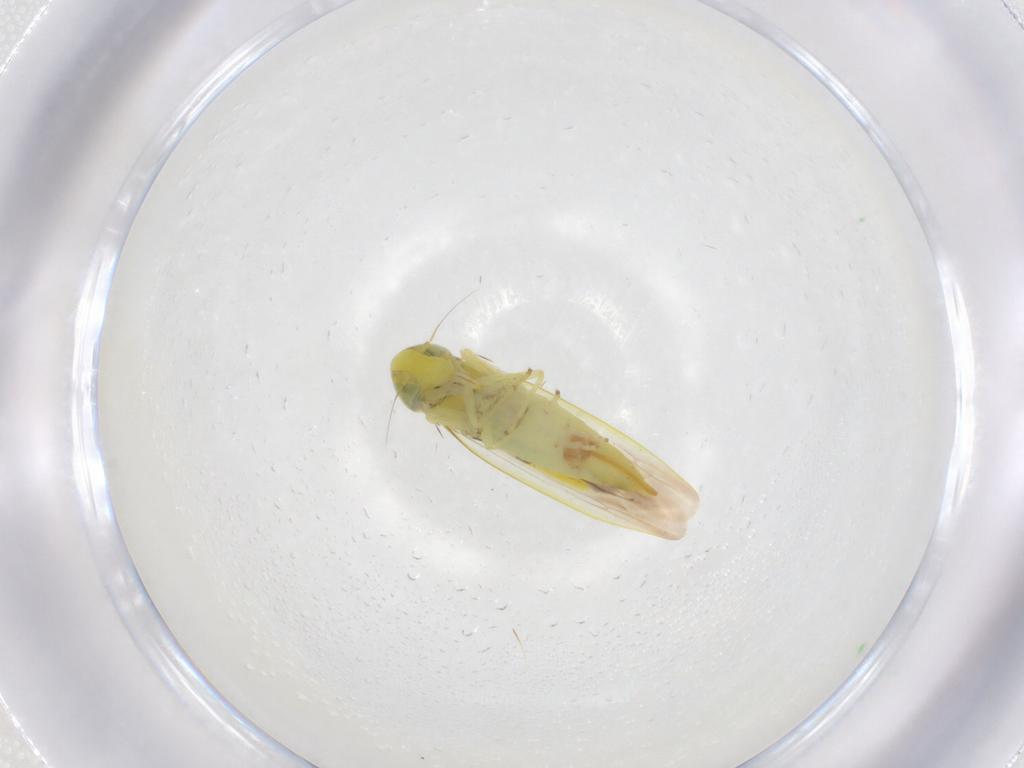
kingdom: Animalia
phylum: Arthropoda
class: Insecta
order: Hemiptera
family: Cicadellidae
